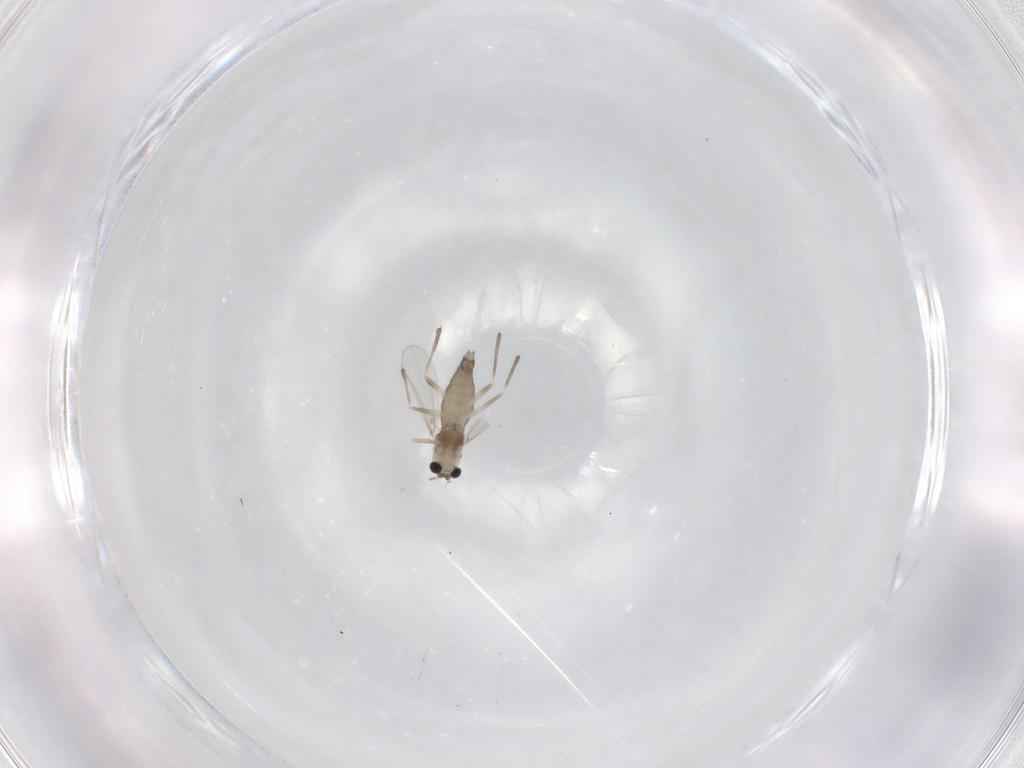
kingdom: Animalia
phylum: Arthropoda
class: Insecta
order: Diptera
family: Chironomidae
